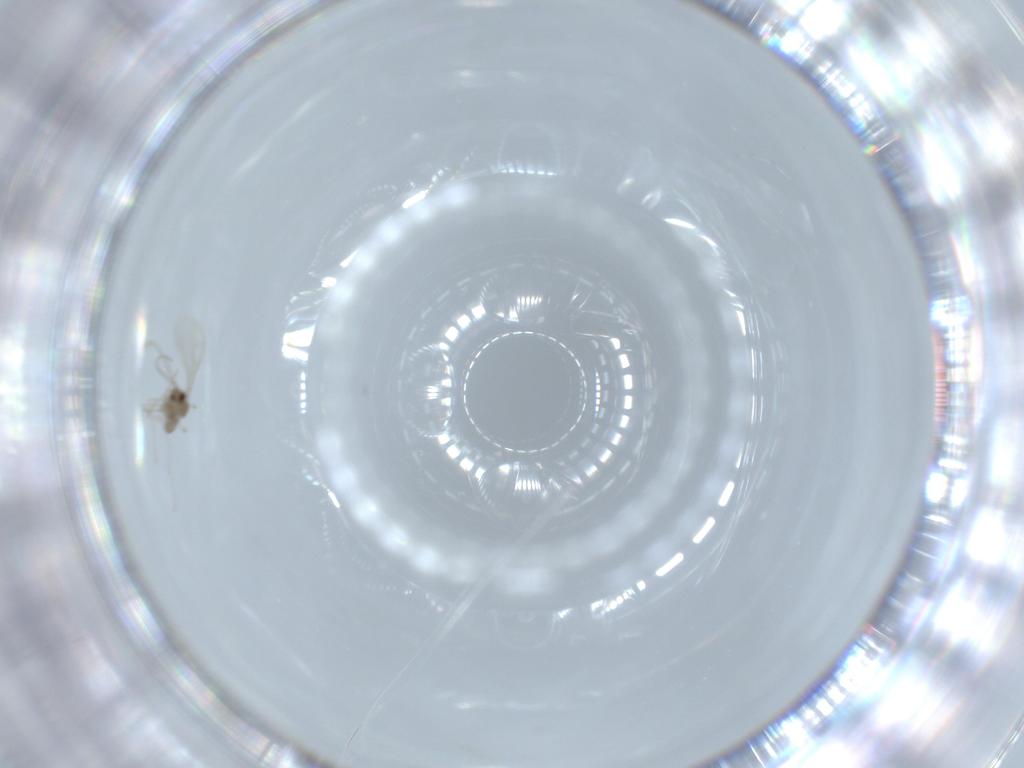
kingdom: Animalia
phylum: Arthropoda
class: Insecta
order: Diptera
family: Cecidomyiidae
